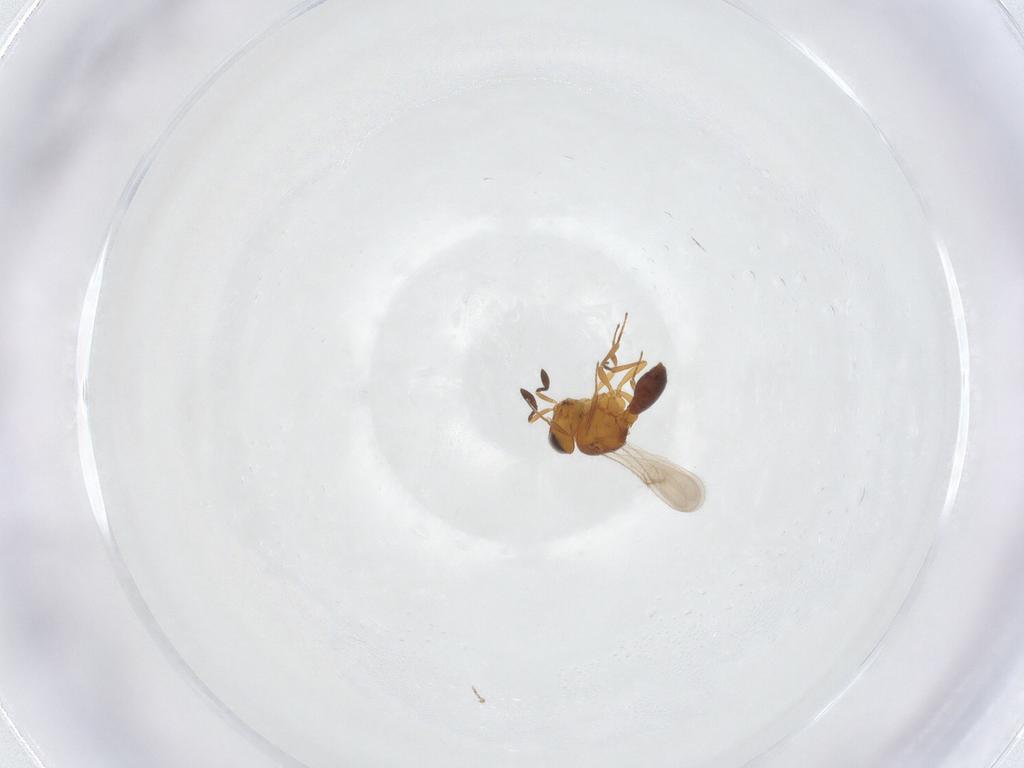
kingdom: Animalia
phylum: Arthropoda
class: Insecta
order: Hymenoptera
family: Scelionidae
